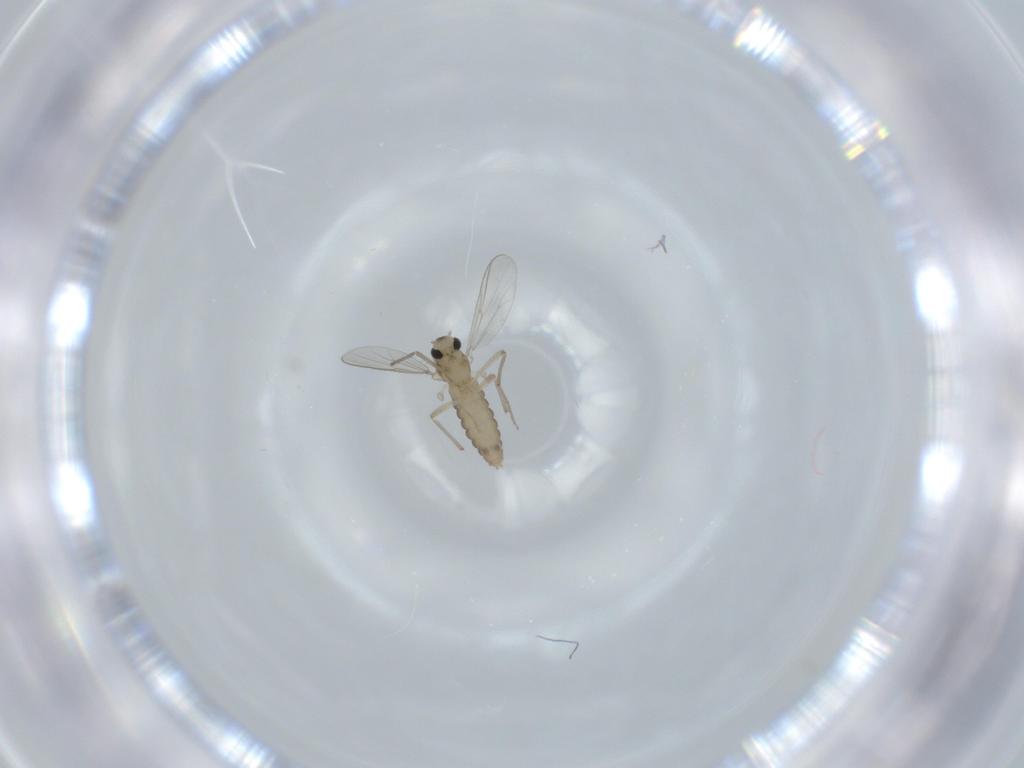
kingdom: Animalia
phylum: Arthropoda
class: Insecta
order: Diptera
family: Chironomidae
